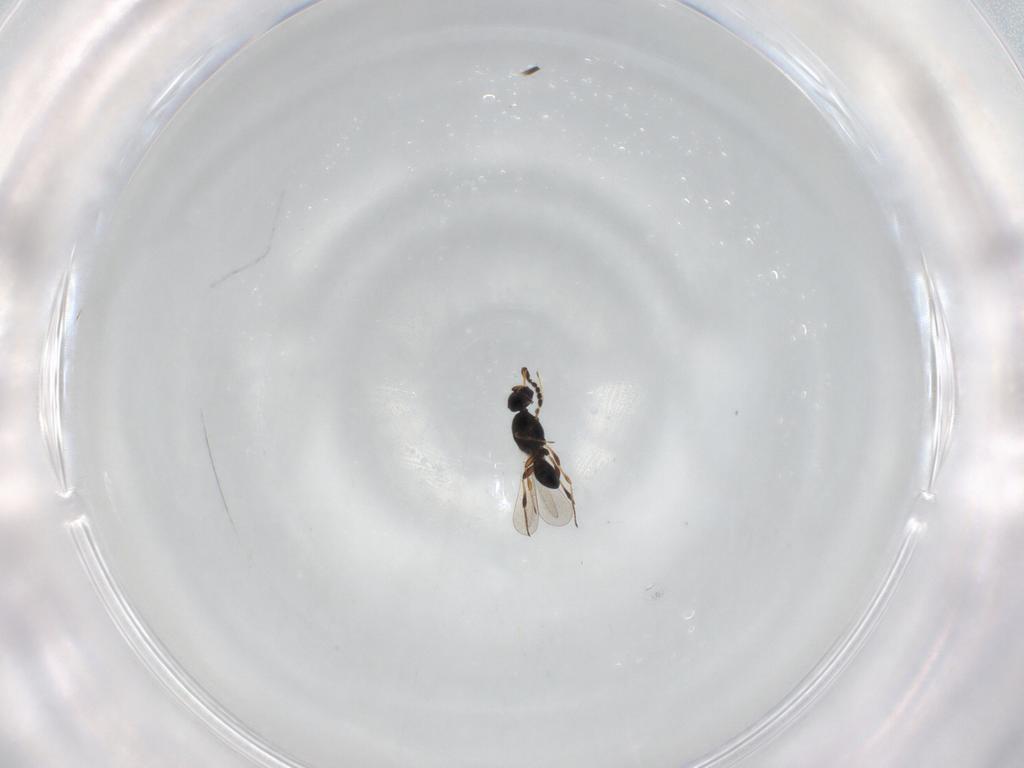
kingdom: Animalia
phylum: Arthropoda
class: Insecta
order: Hymenoptera
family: Platygastridae
